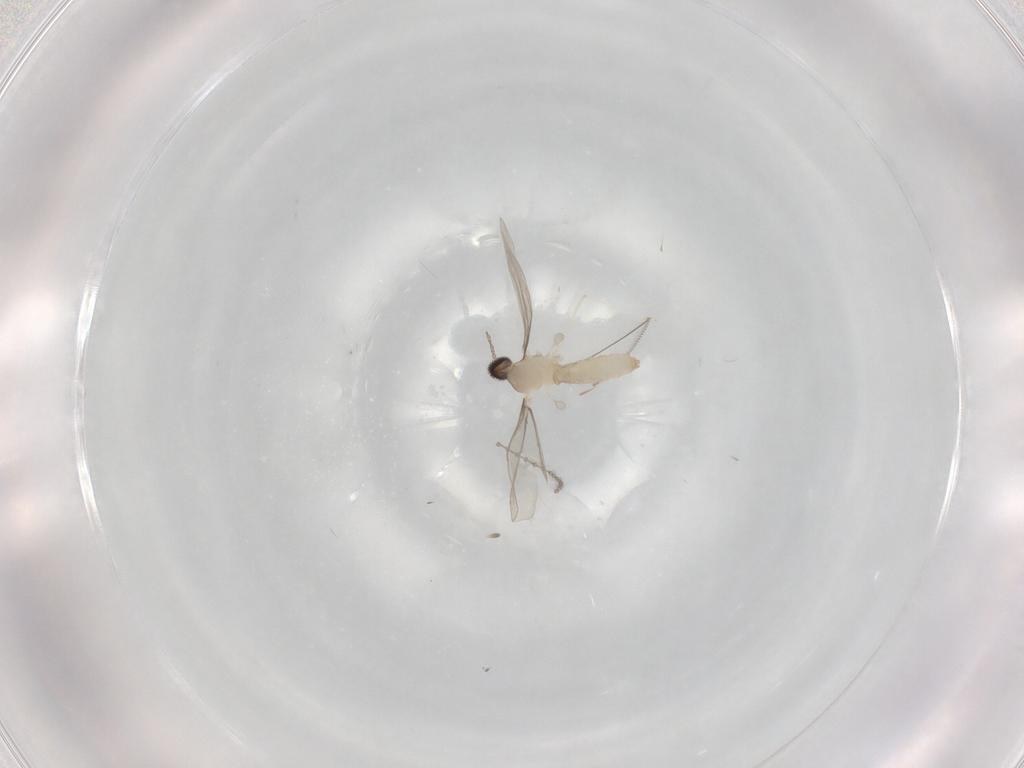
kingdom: Animalia
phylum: Arthropoda
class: Insecta
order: Diptera
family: Cecidomyiidae
